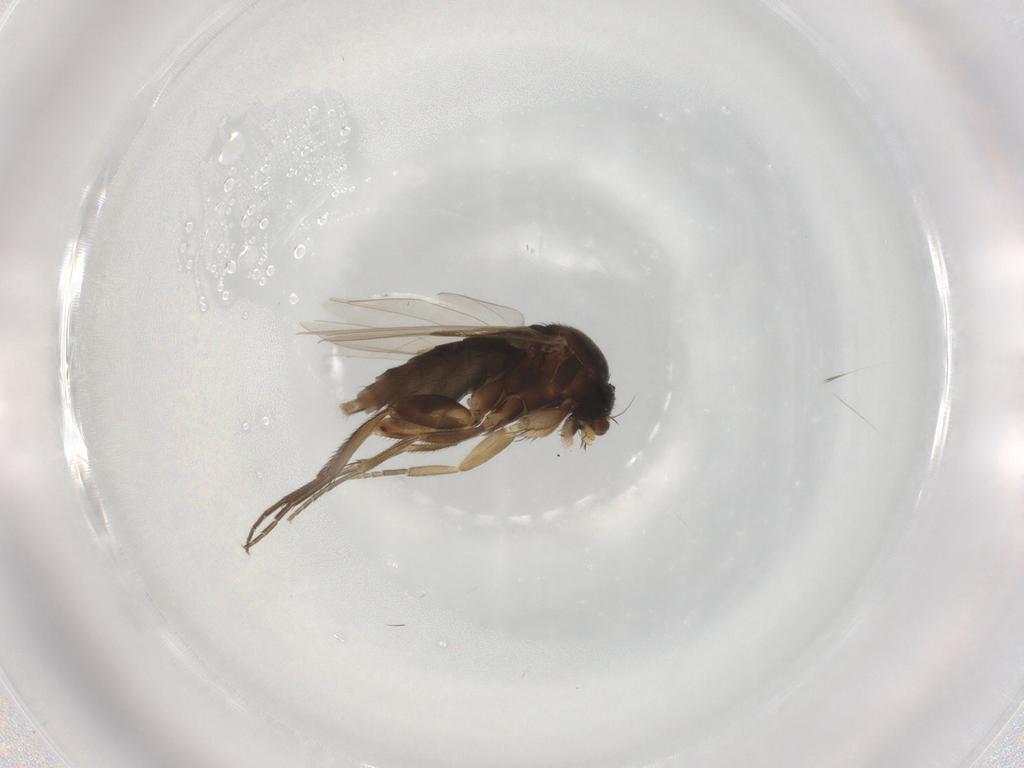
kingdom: Animalia
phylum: Arthropoda
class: Insecta
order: Diptera
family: Phoridae
